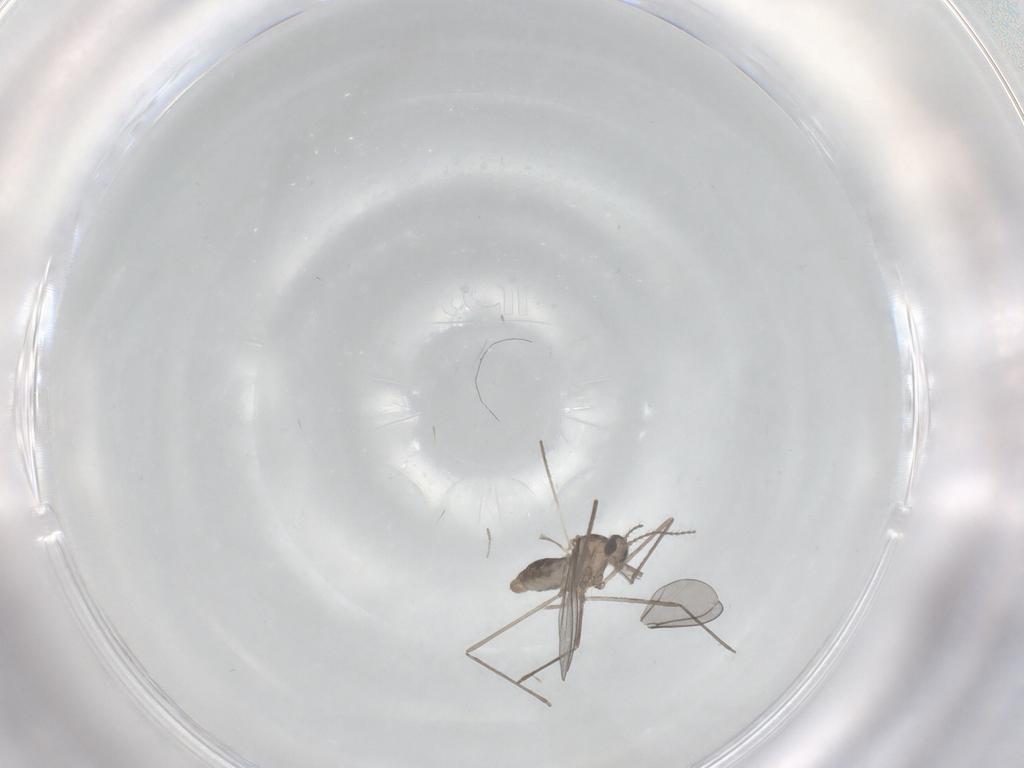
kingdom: Animalia
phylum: Arthropoda
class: Insecta
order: Diptera
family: Cecidomyiidae
